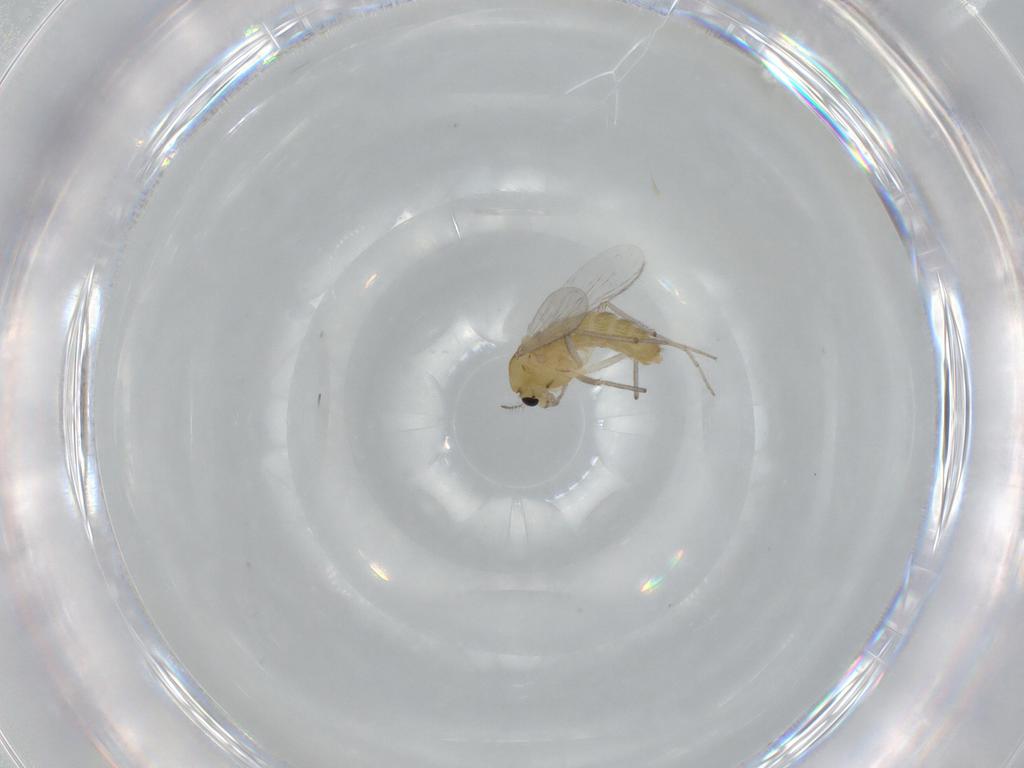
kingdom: Animalia
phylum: Arthropoda
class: Insecta
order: Diptera
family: Chironomidae
